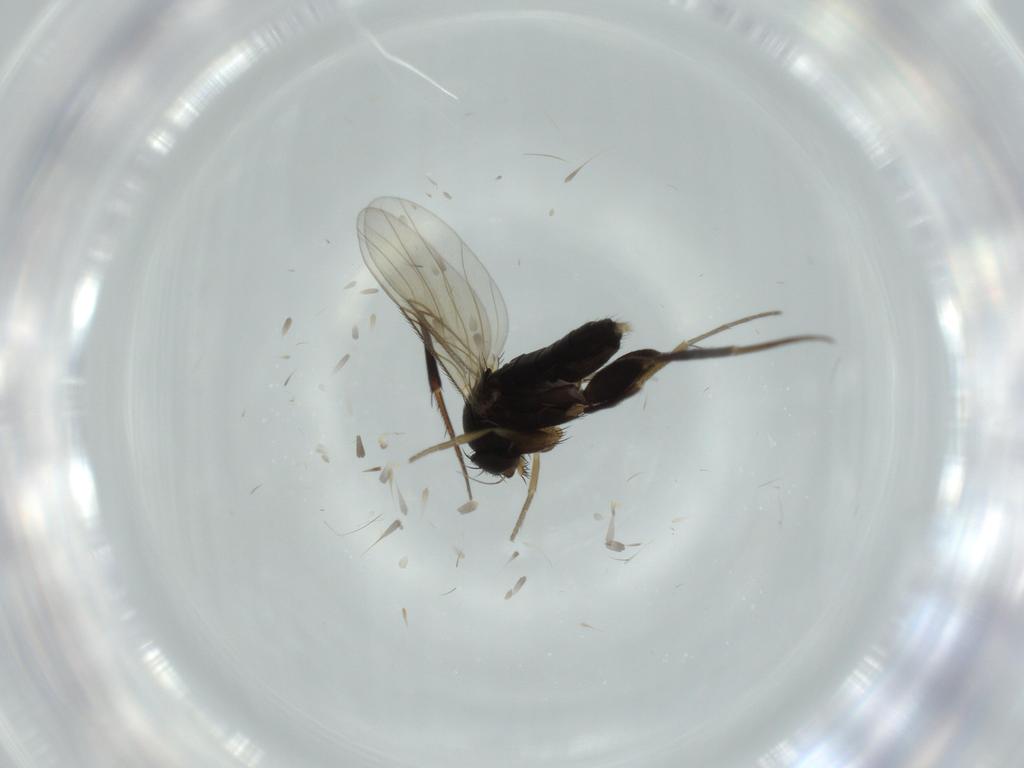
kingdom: Animalia
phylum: Arthropoda
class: Insecta
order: Diptera
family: Phoridae
